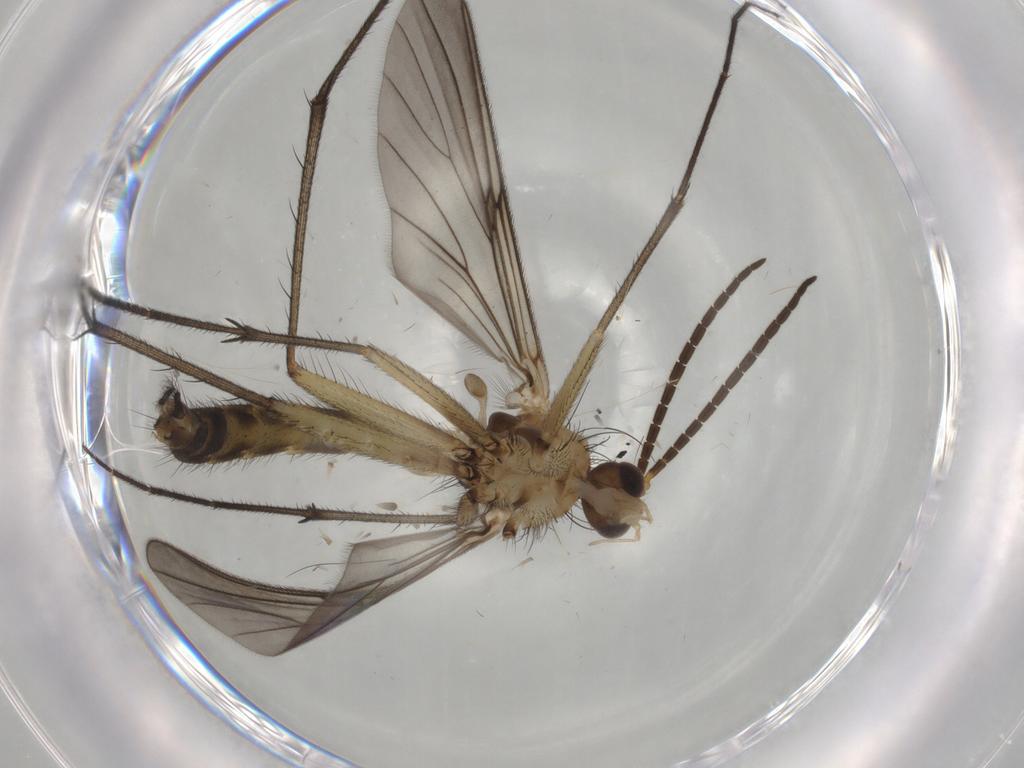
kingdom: Animalia
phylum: Arthropoda
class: Insecta
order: Diptera
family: Mycetophilidae
